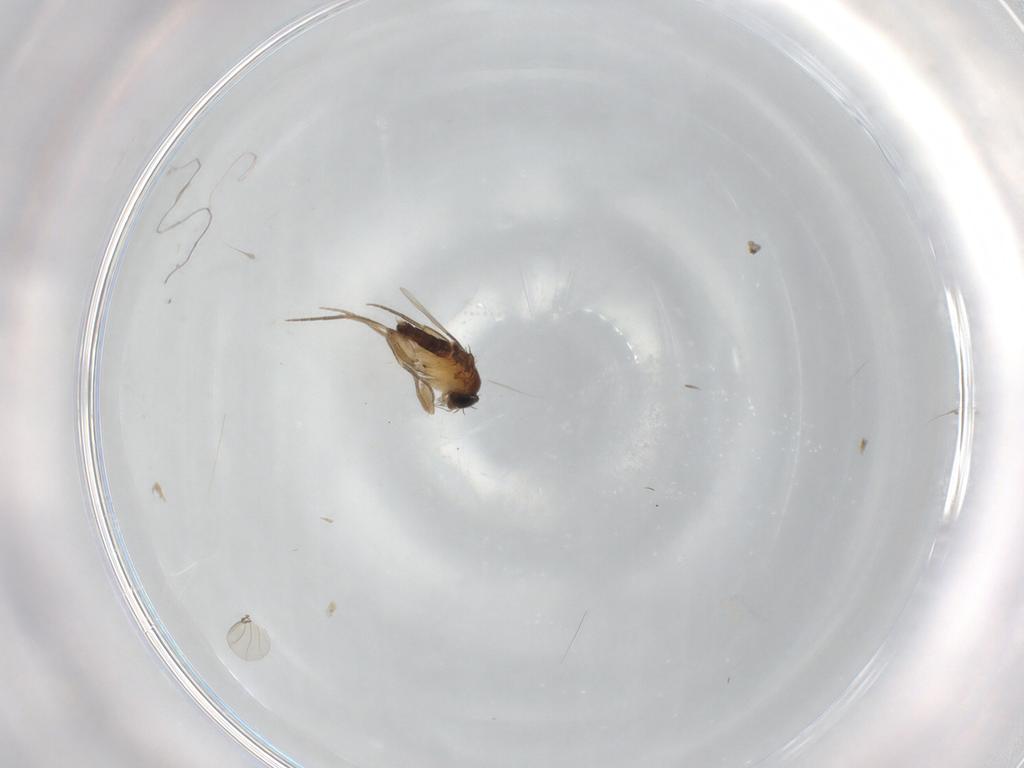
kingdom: Animalia
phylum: Arthropoda
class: Insecta
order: Diptera
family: Phoridae
